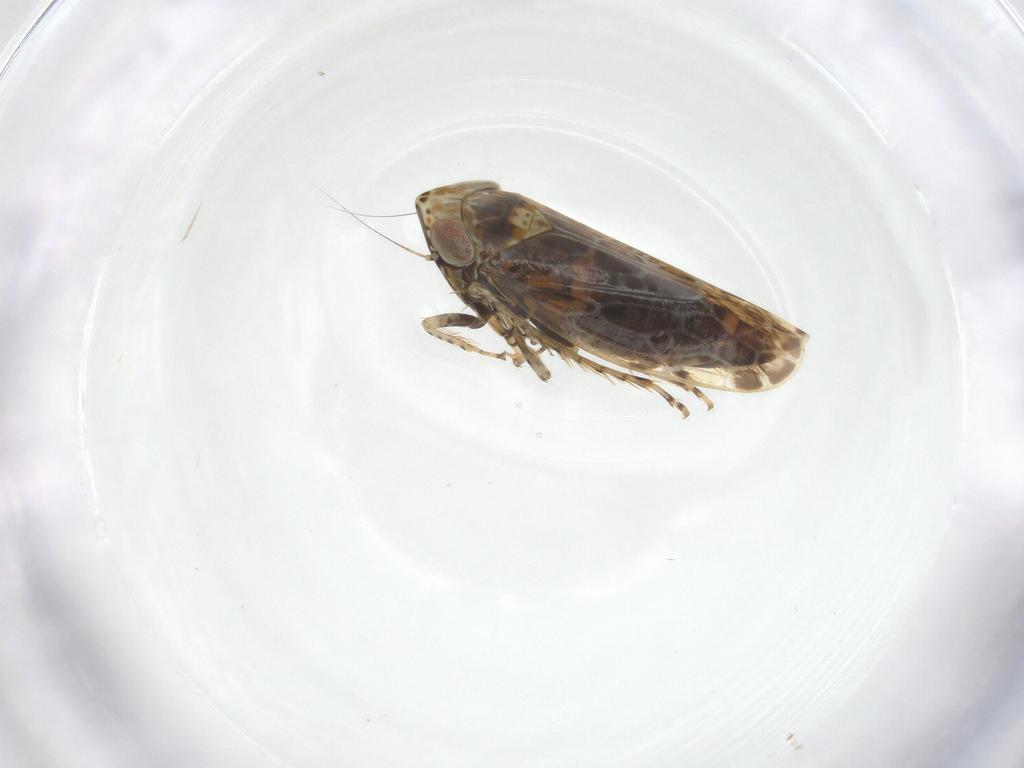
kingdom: Animalia
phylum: Arthropoda
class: Insecta
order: Hemiptera
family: Cicadellidae
